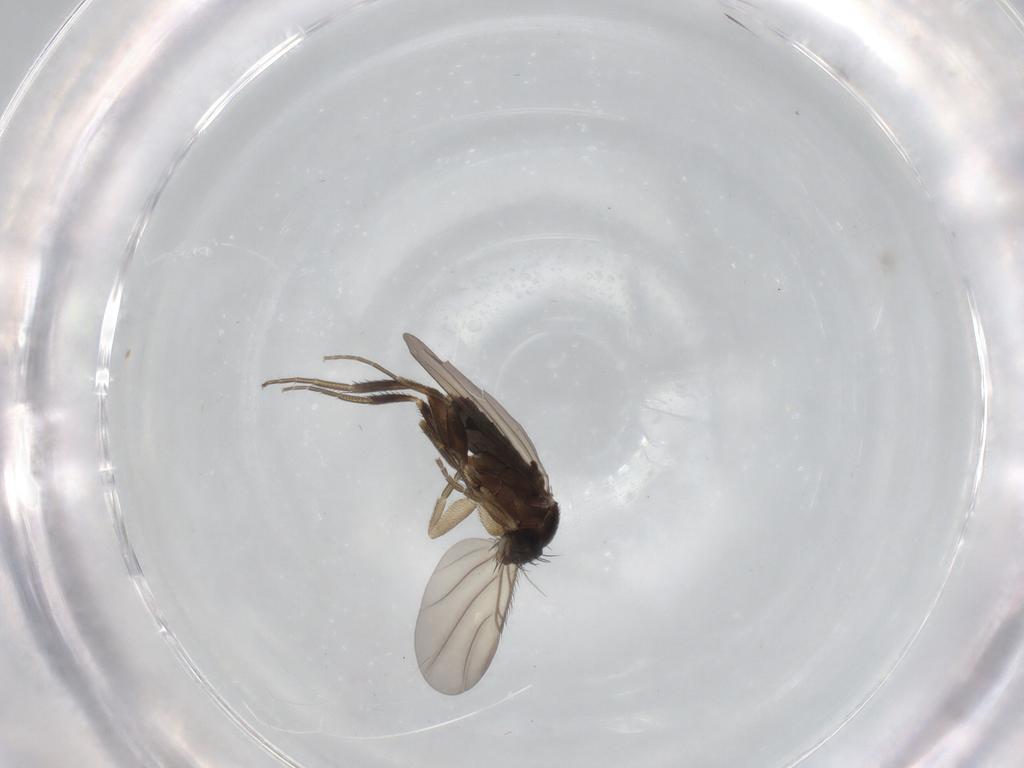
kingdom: Animalia
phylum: Arthropoda
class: Insecta
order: Diptera
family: Phoridae
